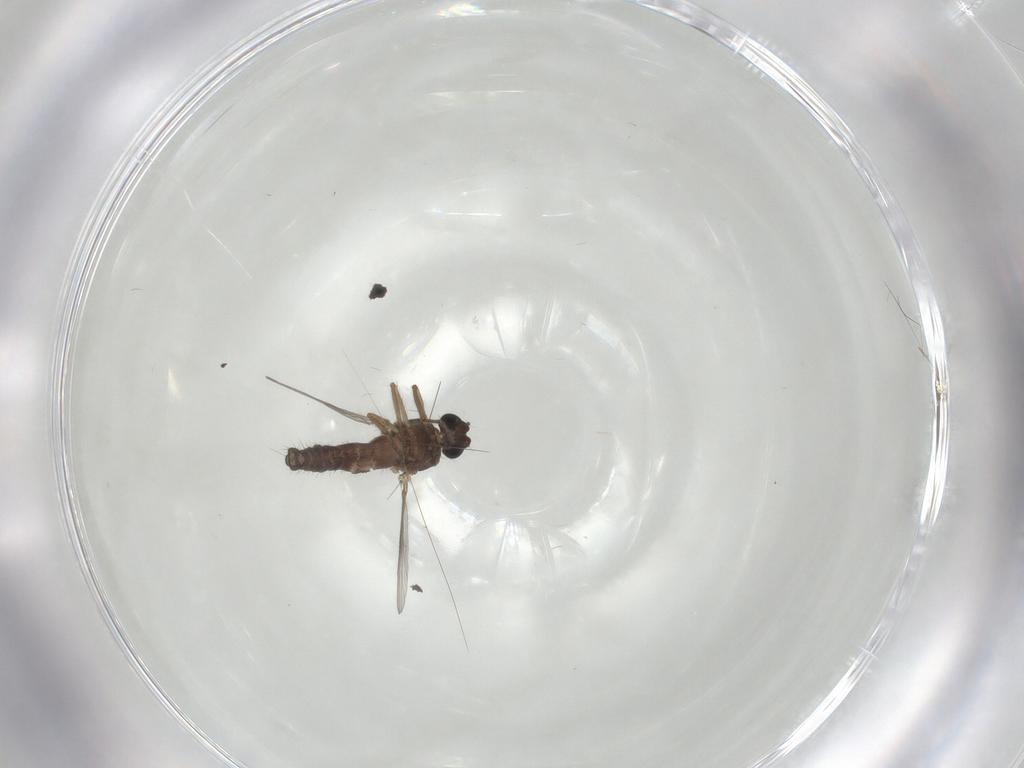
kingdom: Animalia
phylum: Arthropoda
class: Insecta
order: Diptera
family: Ceratopogonidae
